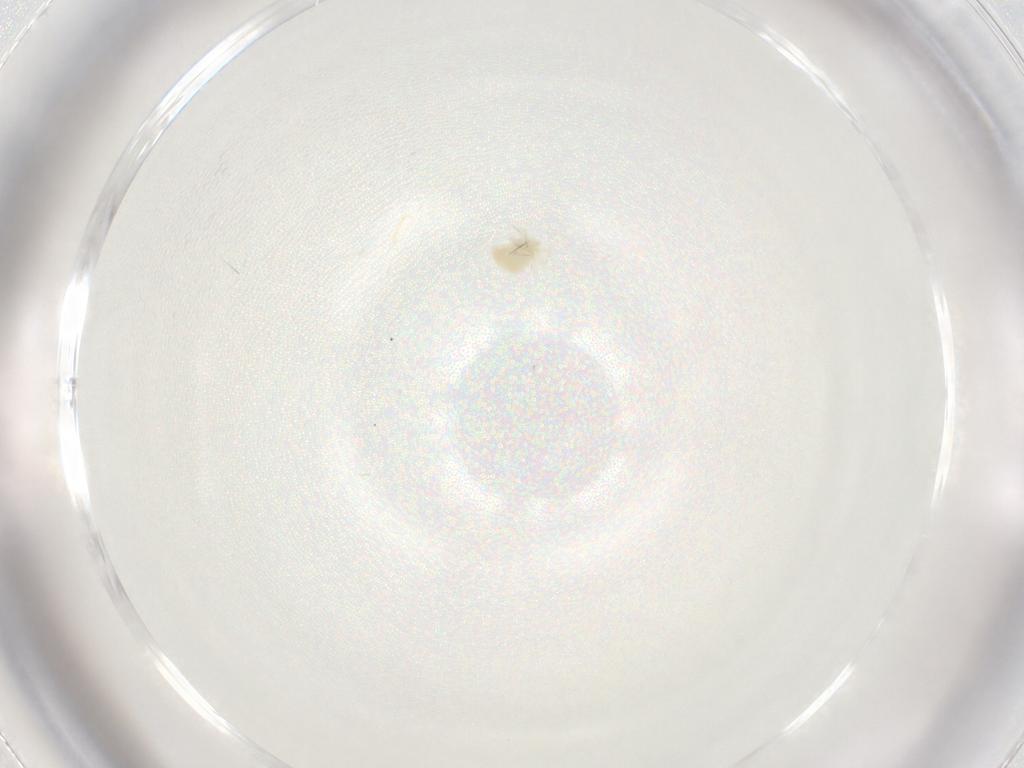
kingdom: Animalia
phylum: Arthropoda
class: Arachnida
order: Trombidiformes
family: Anystidae
